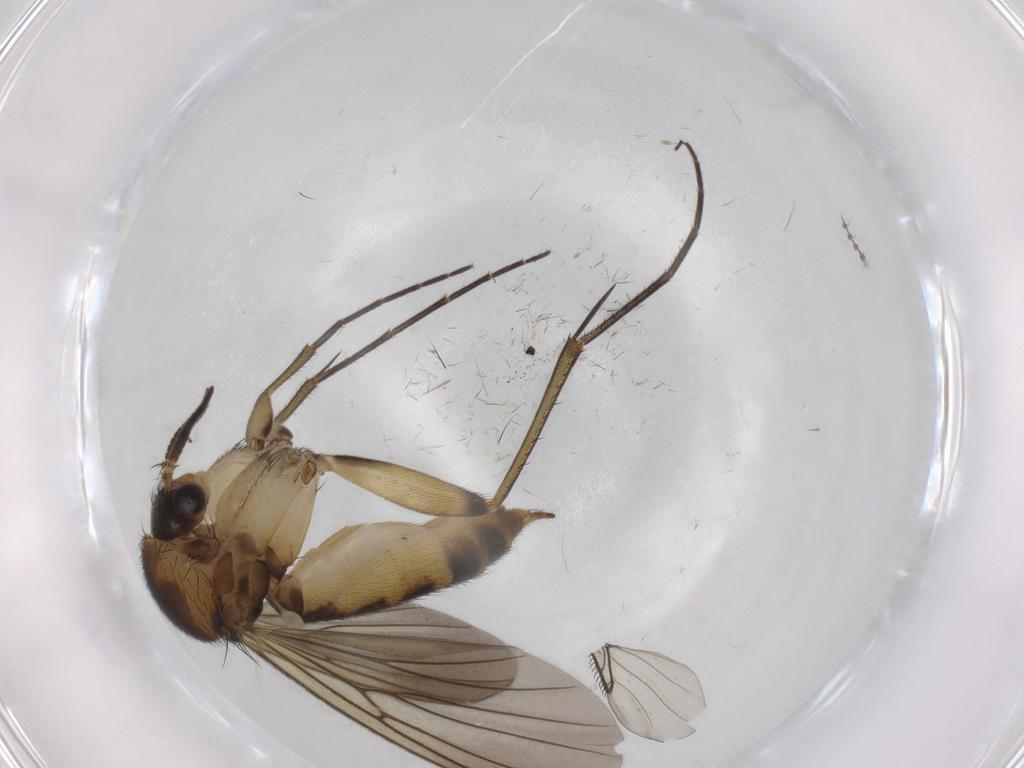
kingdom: Animalia
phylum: Arthropoda
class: Insecta
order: Diptera
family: Mycetophilidae
